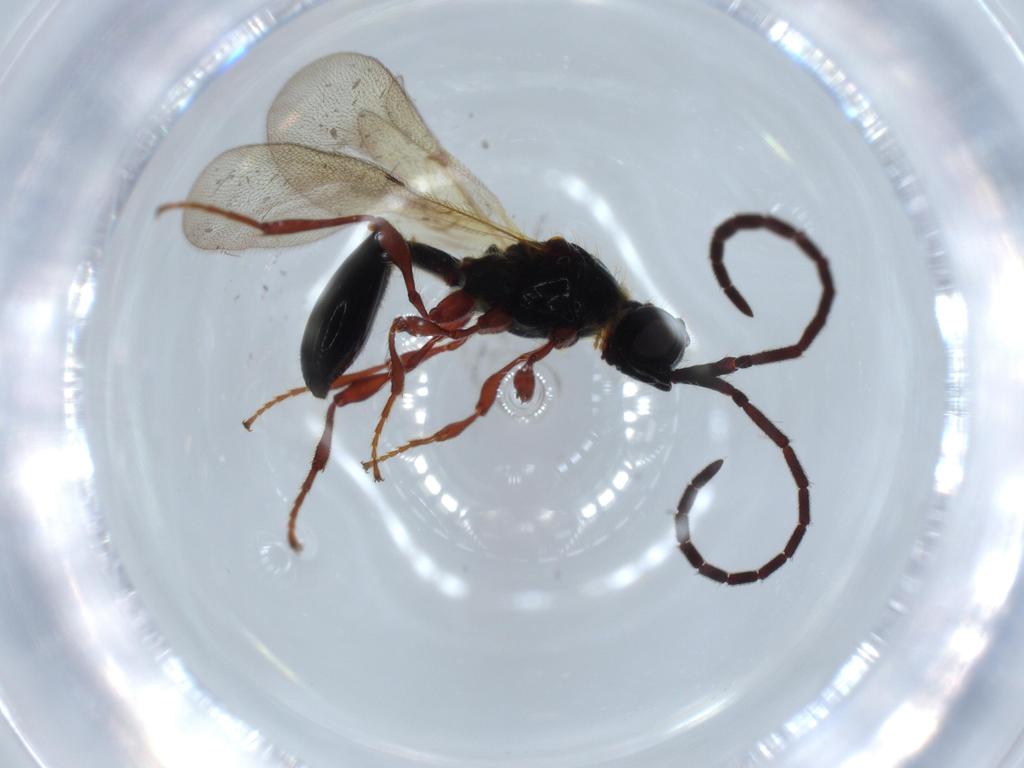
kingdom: Animalia
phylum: Arthropoda
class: Insecta
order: Hymenoptera
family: Diapriidae
